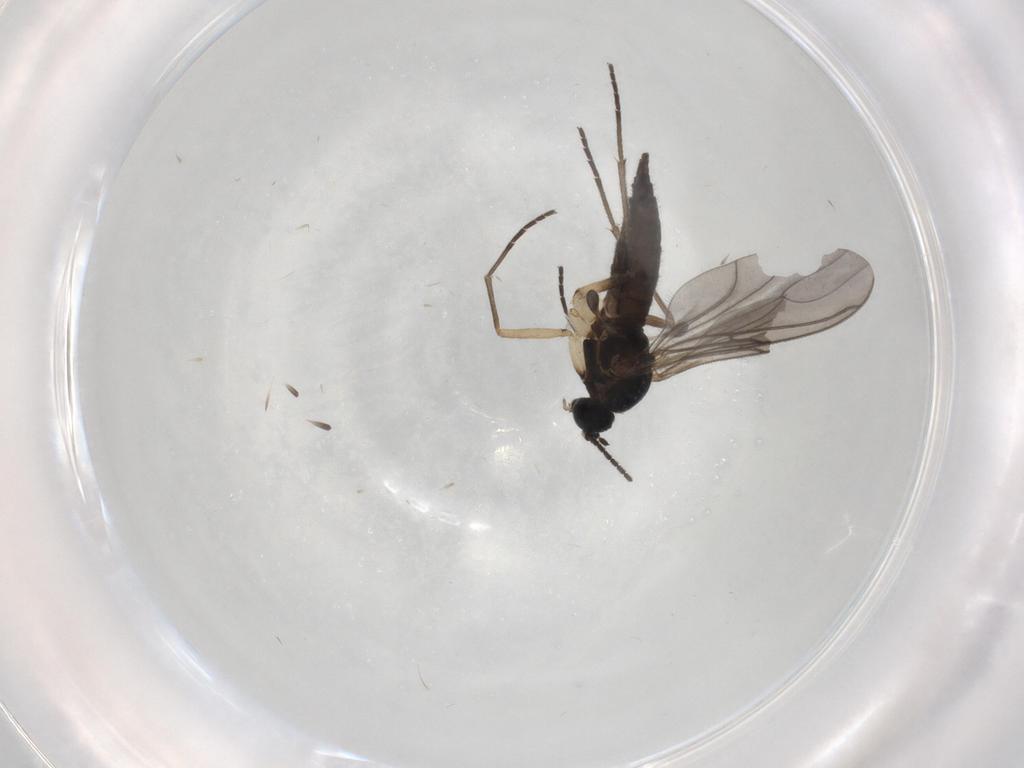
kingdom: Animalia
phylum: Arthropoda
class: Insecta
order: Diptera
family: Sciaridae
